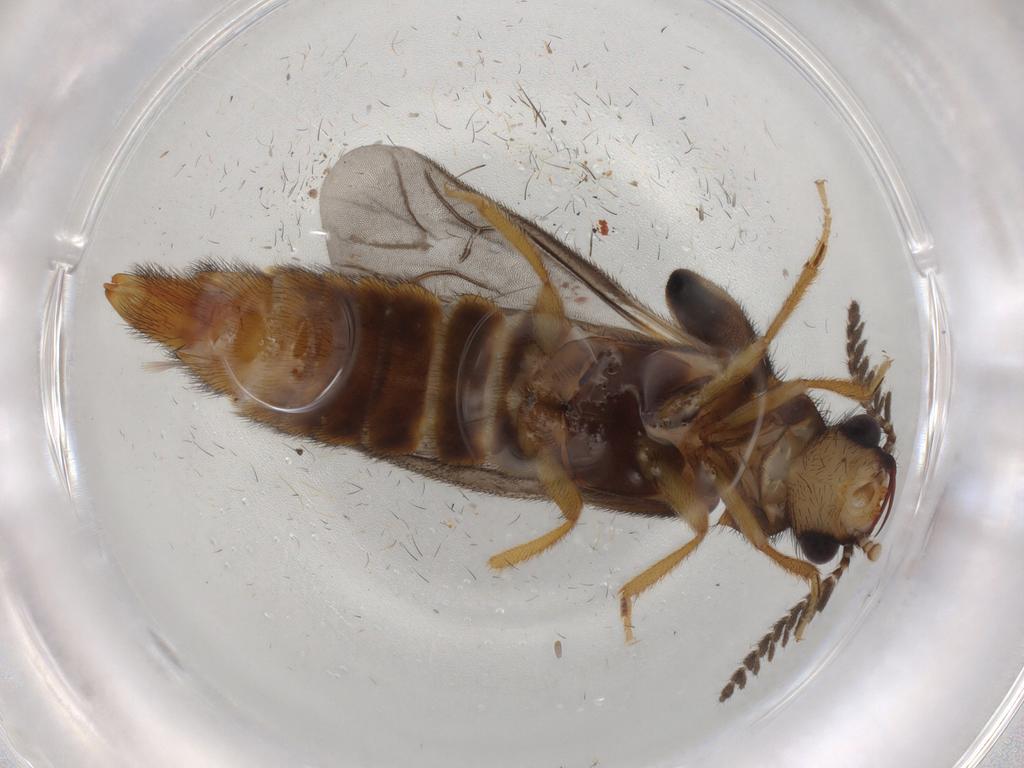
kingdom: Animalia
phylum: Arthropoda
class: Insecta
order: Coleoptera
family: Phengodidae
